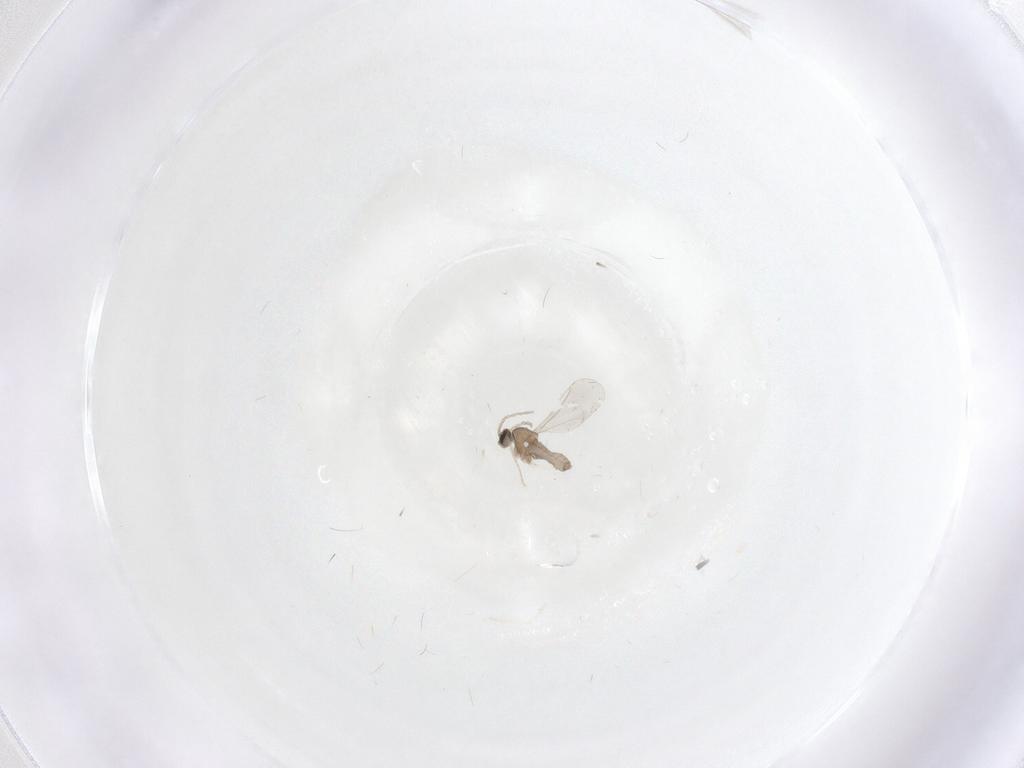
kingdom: Animalia
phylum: Arthropoda
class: Insecta
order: Diptera
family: Cecidomyiidae
